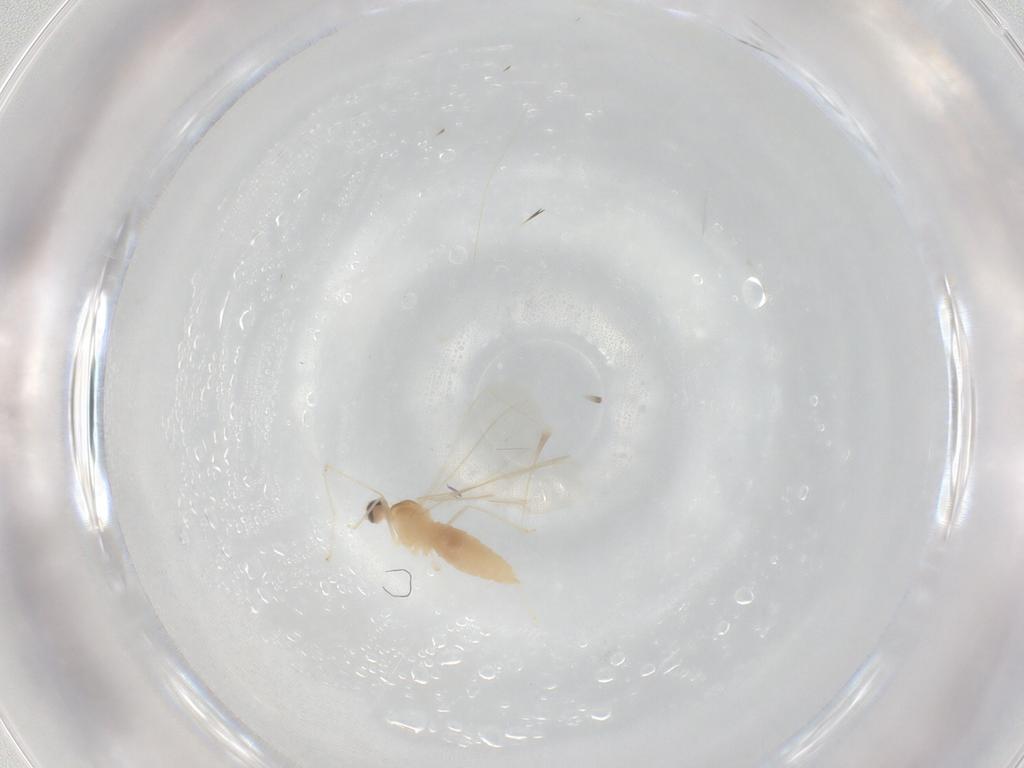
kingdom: Animalia
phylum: Arthropoda
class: Insecta
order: Diptera
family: Cecidomyiidae
